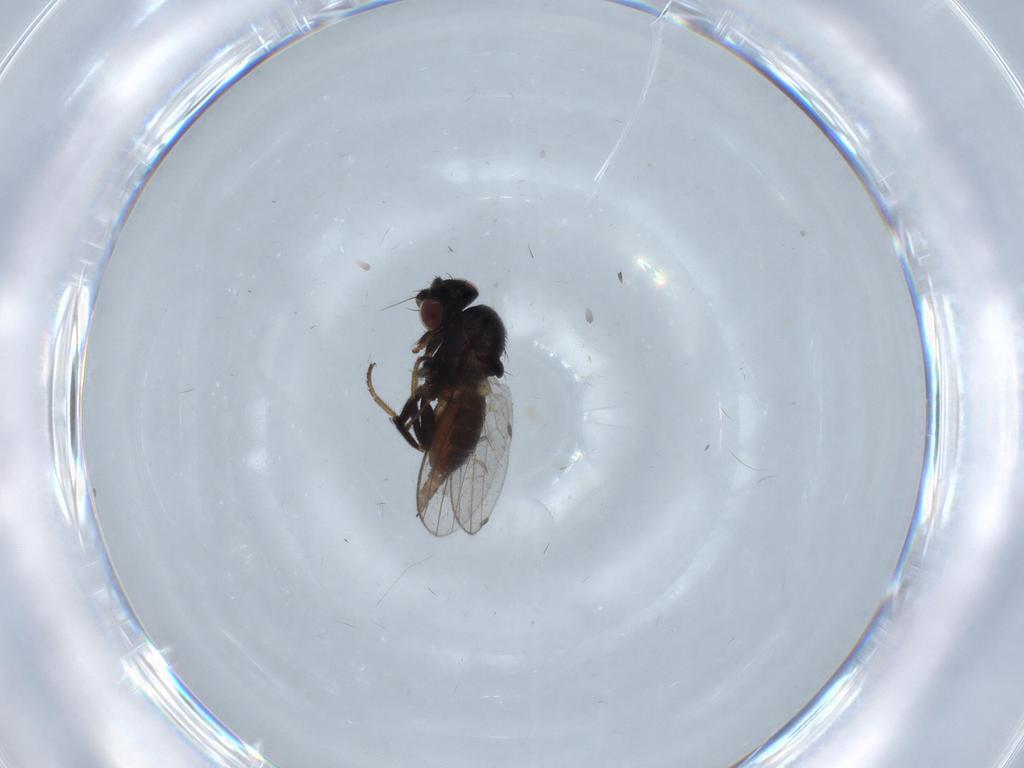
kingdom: Animalia
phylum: Arthropoda
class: Insecta
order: Diptera
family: Milichiidae
